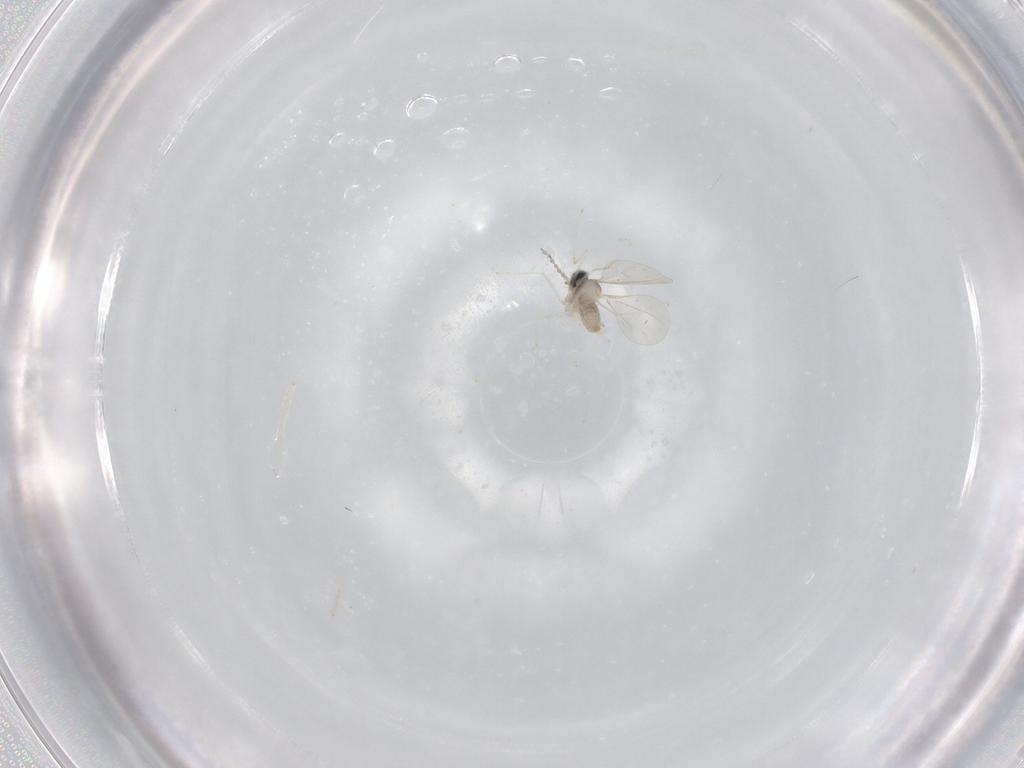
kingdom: Animalia
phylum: Arthropoda
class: Insecta
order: Diptera
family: Cecidomyiidae
